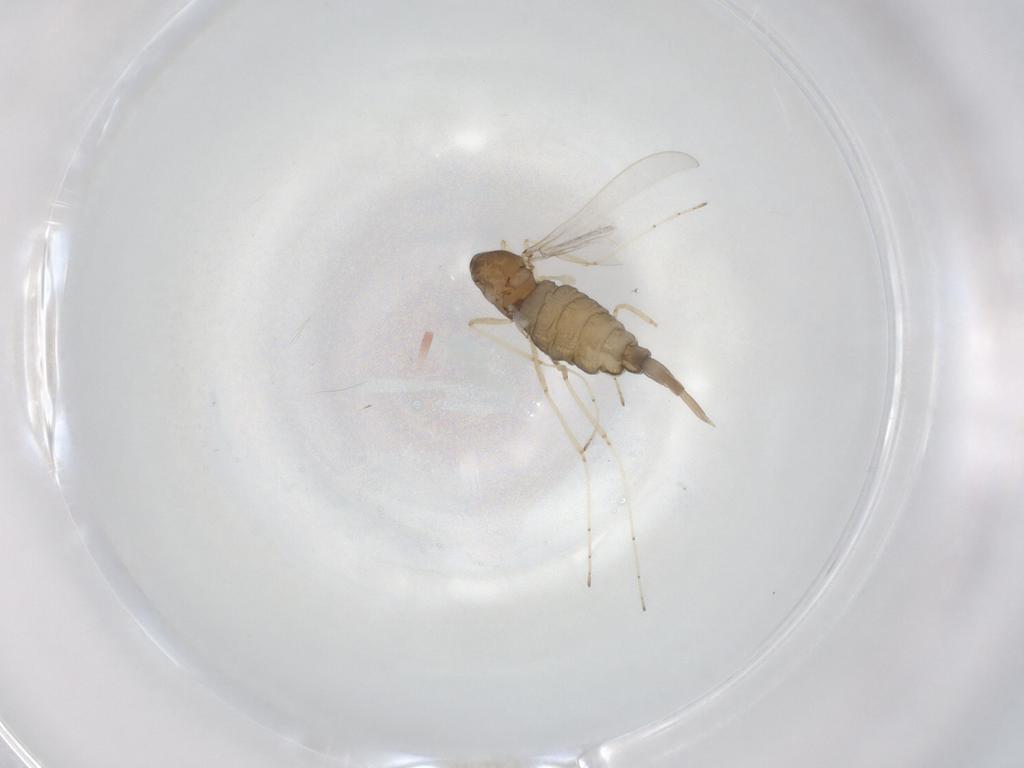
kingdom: Animalia
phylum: Arthropoda
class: Insecta
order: Diptera
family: Cecidomyiidae
